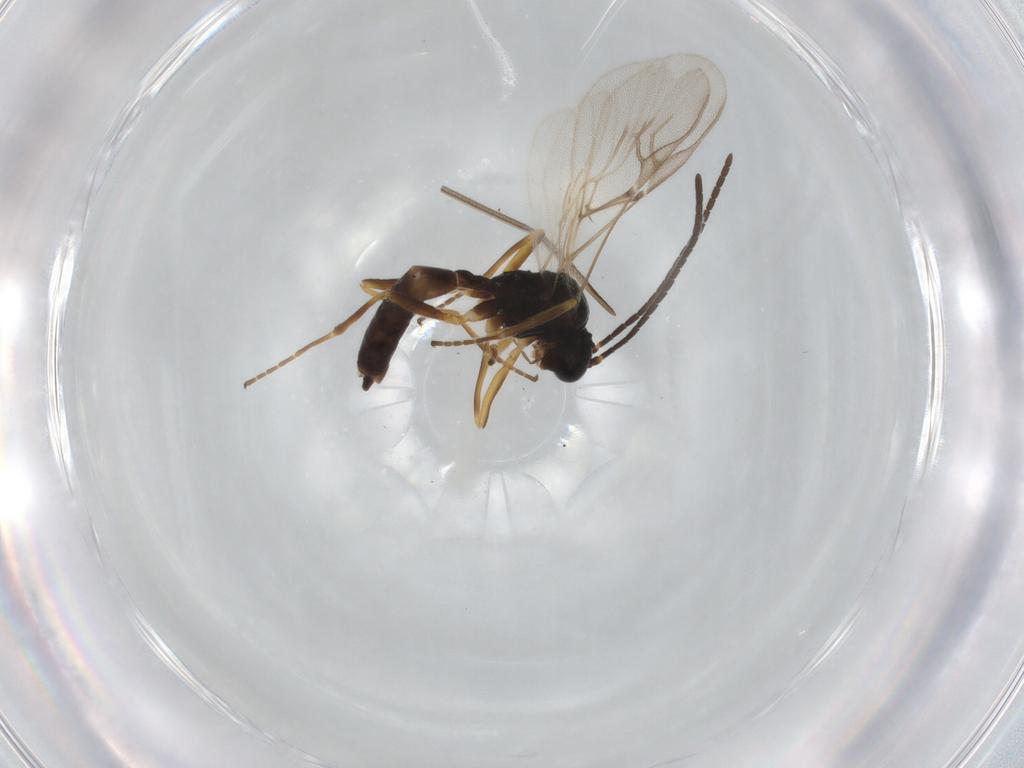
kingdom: Animalia
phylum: Arthropoda
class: Insecta
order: Hymenoptera
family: Braconidae
